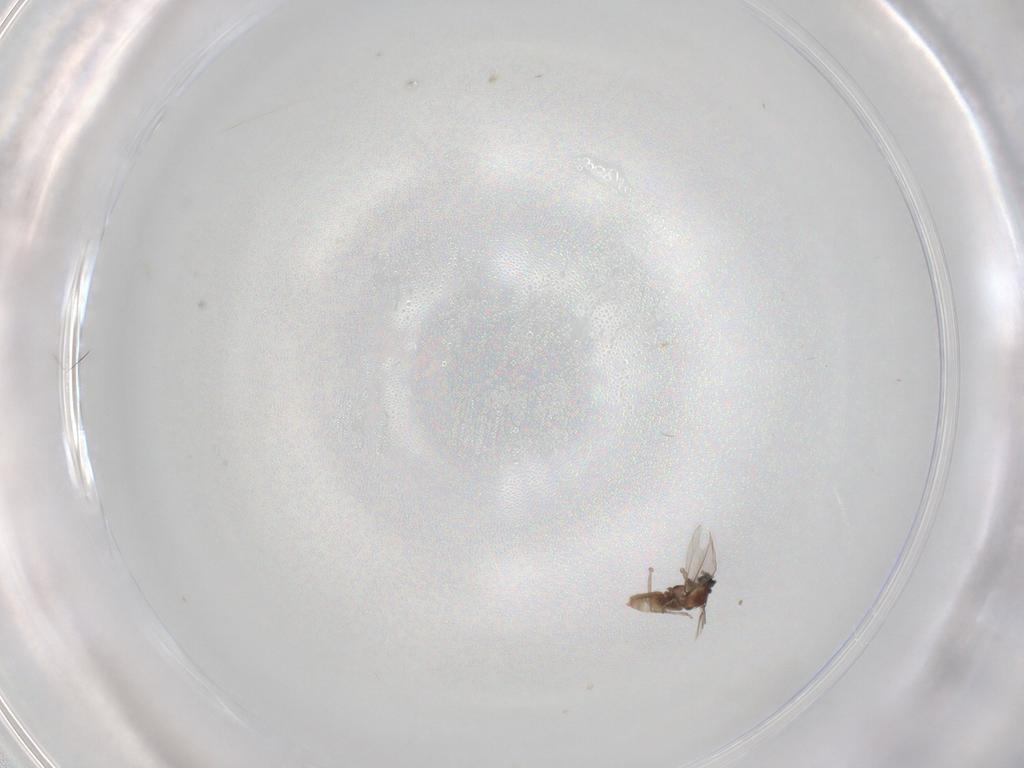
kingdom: Animalia
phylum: Arthropoda
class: Insecta
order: Diptera
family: Cecidomyiidae
